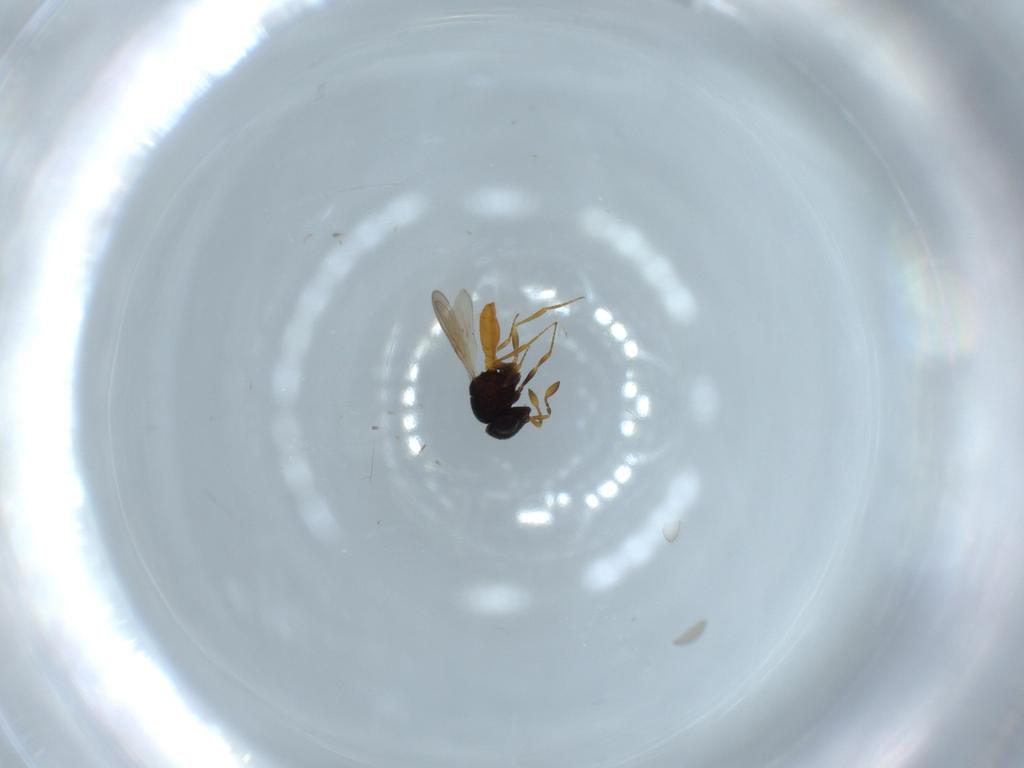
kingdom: Animalia
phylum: Arthropoda
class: Insecta
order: Hymenoptera
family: Scelionidae
